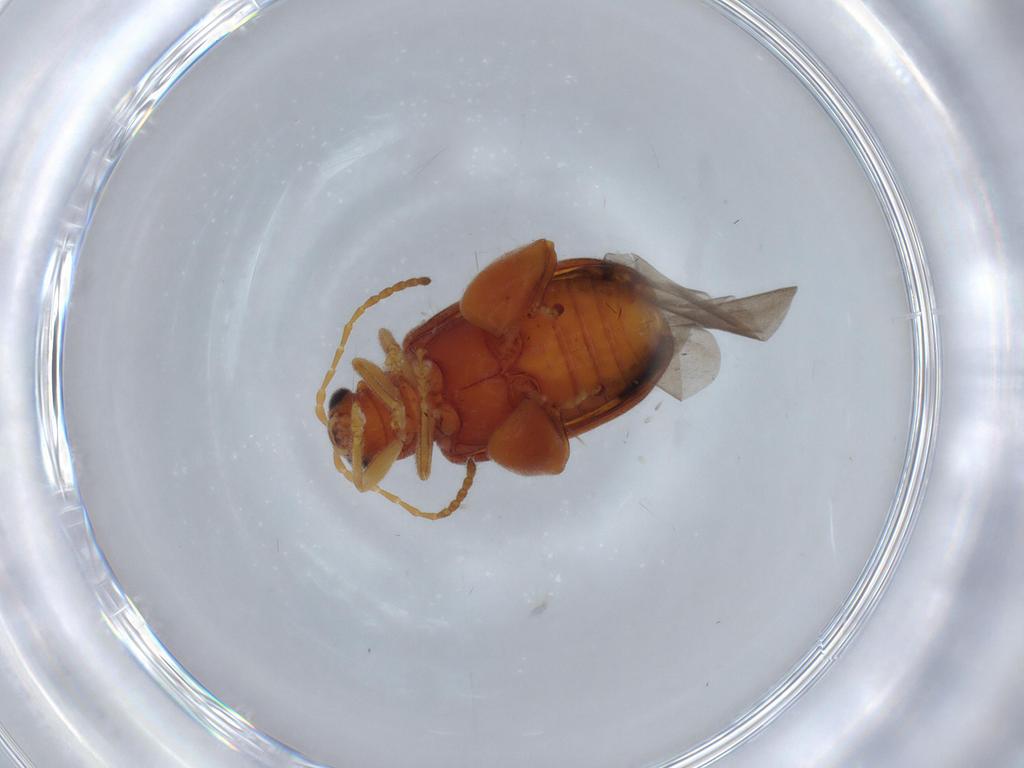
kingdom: Animalia
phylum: Arthropoda
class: Insecta
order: Coleoptera
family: Chrysomelidae
